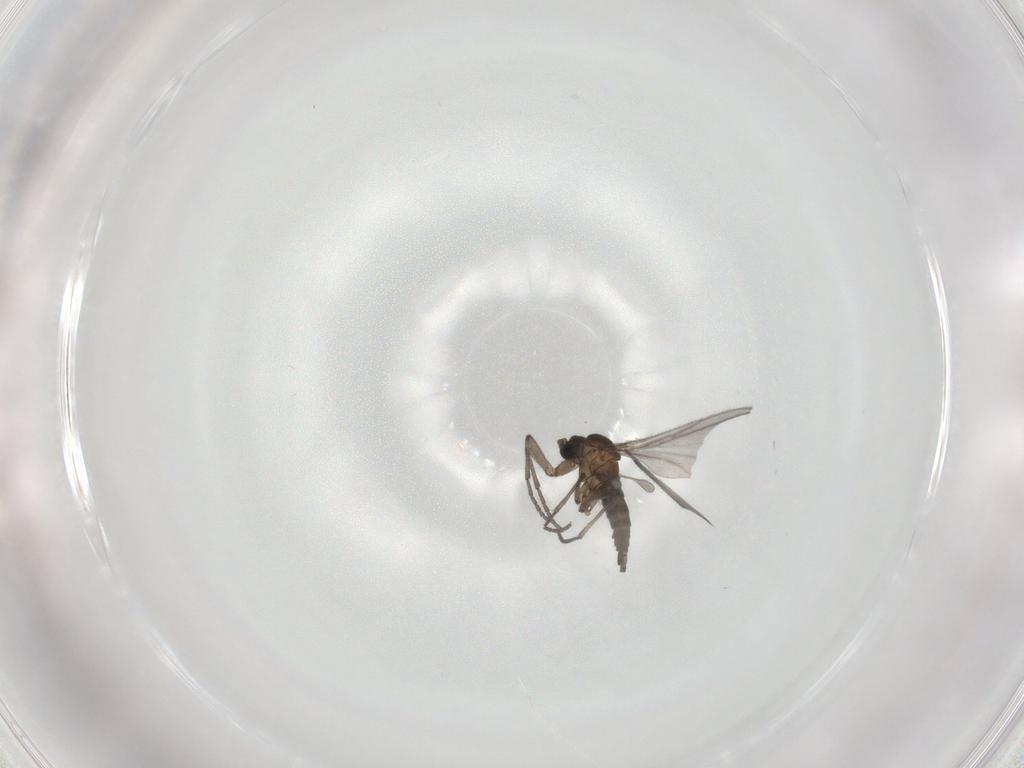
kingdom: Animalia
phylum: Arthropoda
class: Insecta
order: Diptera
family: Sciaridae
